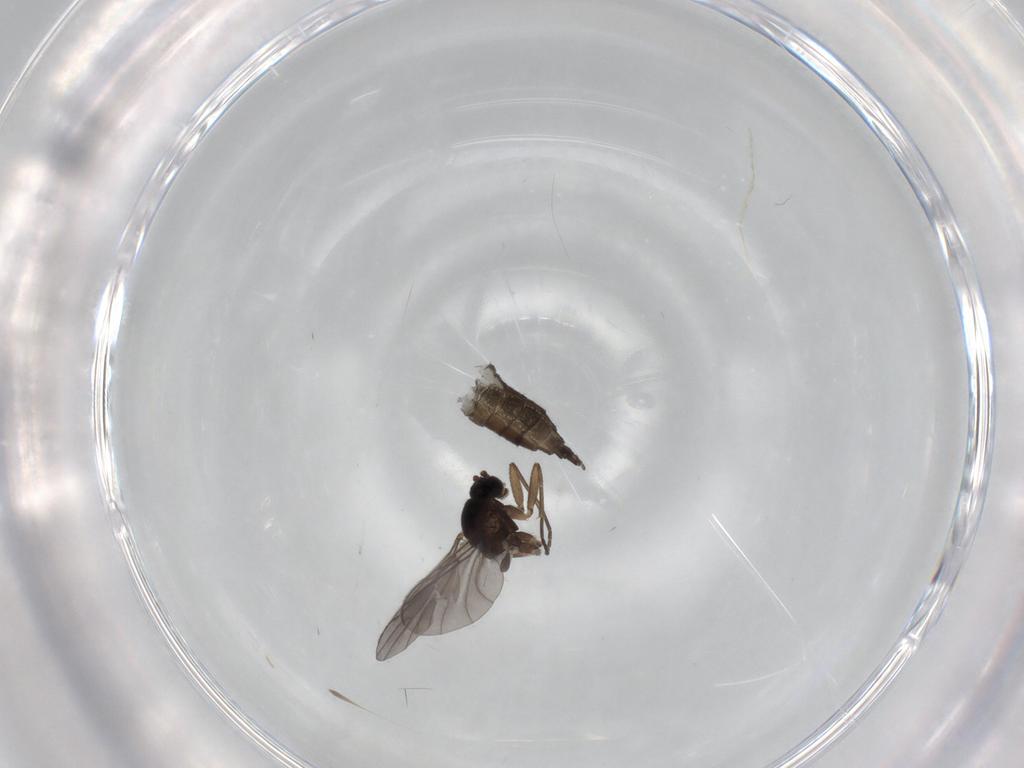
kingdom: Animalia
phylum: Arthropoda
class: Insecta
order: Diptera
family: Sciaridae
